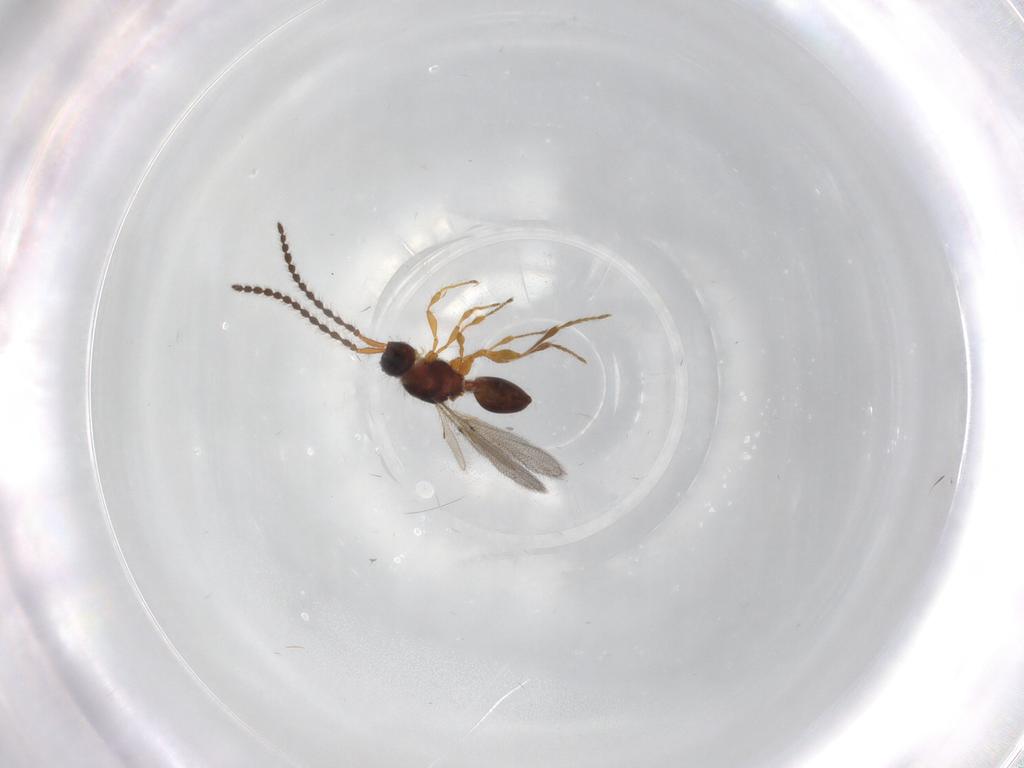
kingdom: Animalia
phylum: Arthropoda
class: Insecta
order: Hymenoptera
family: Diapriidae
